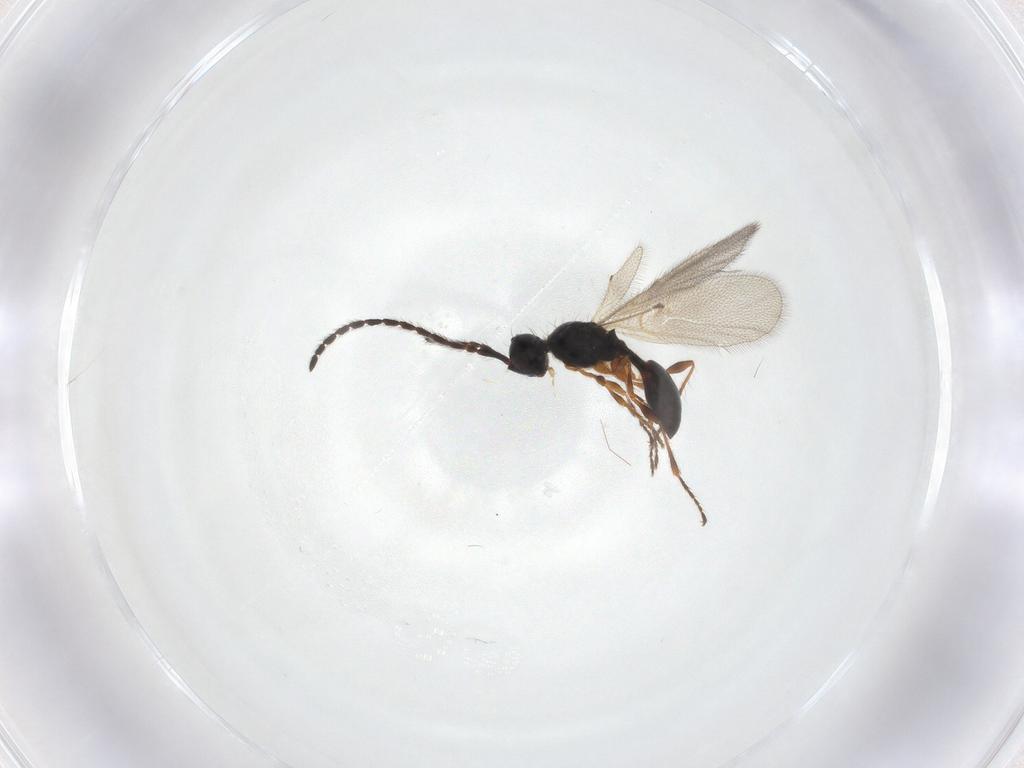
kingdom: Animalia
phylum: Arthropoda
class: Insecta
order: Hymenoptera
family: Diapriidae
